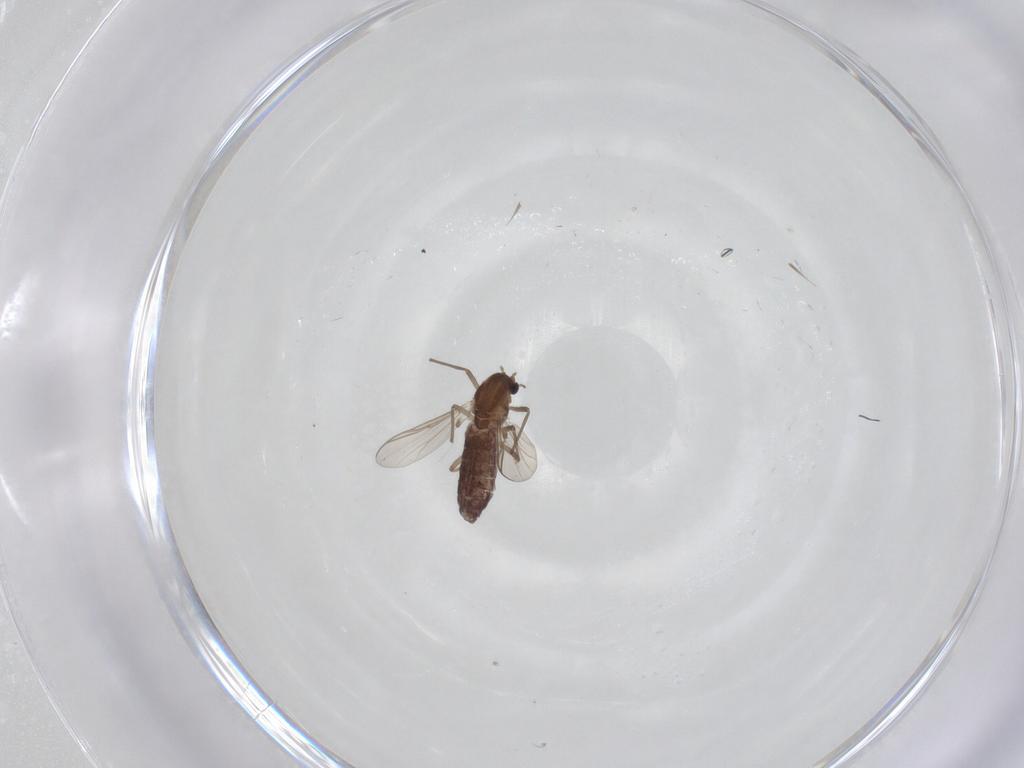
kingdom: Animalia
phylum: Arthropoda
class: Insecta
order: Diptera
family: Chironomidae
